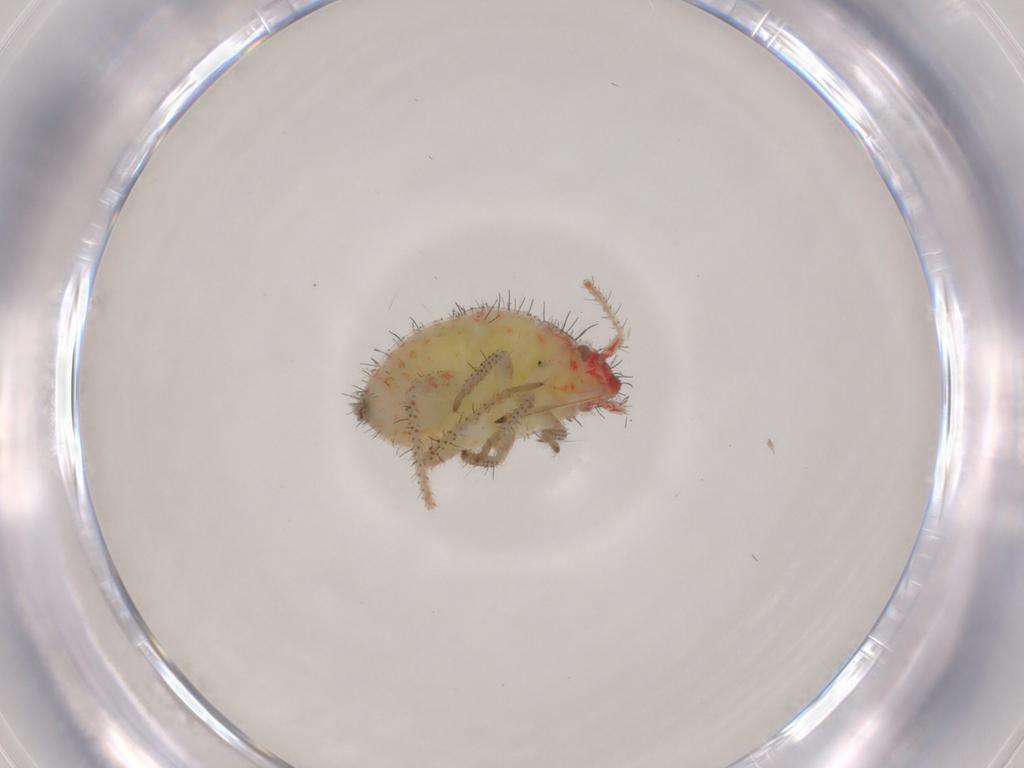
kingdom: Animalia
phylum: Arthropoda
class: Insecta
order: Hemiptera
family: Miridae
